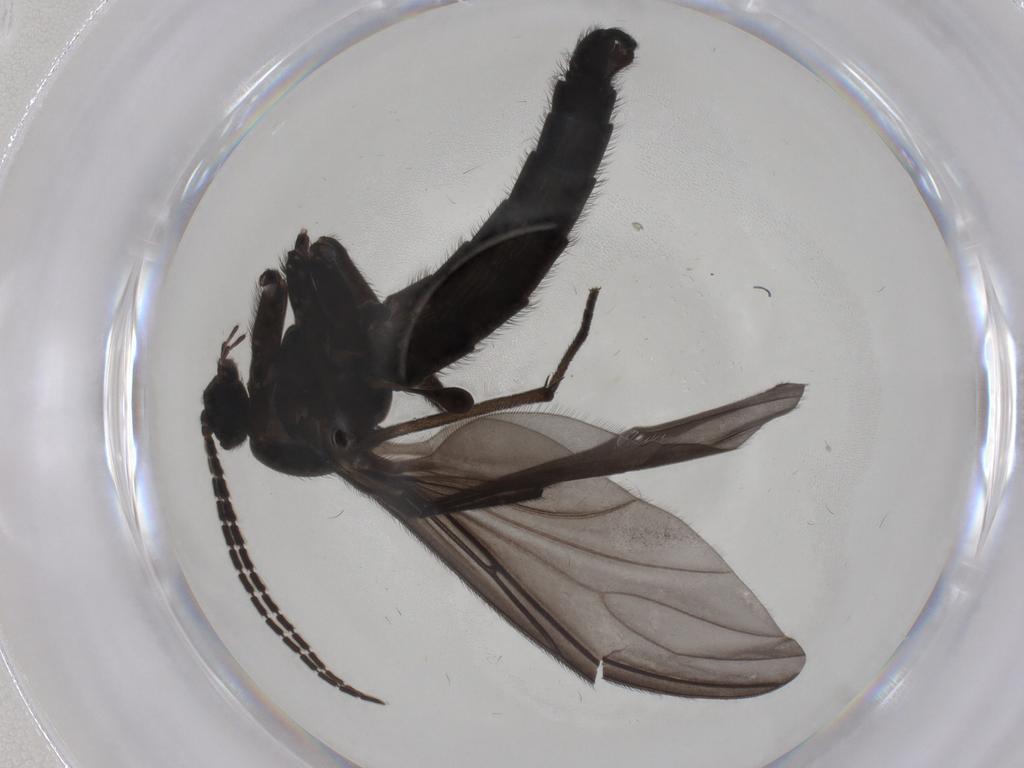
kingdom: Animalia
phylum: Arthropoda
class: Insecta
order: Diptera
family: Sciaridae
